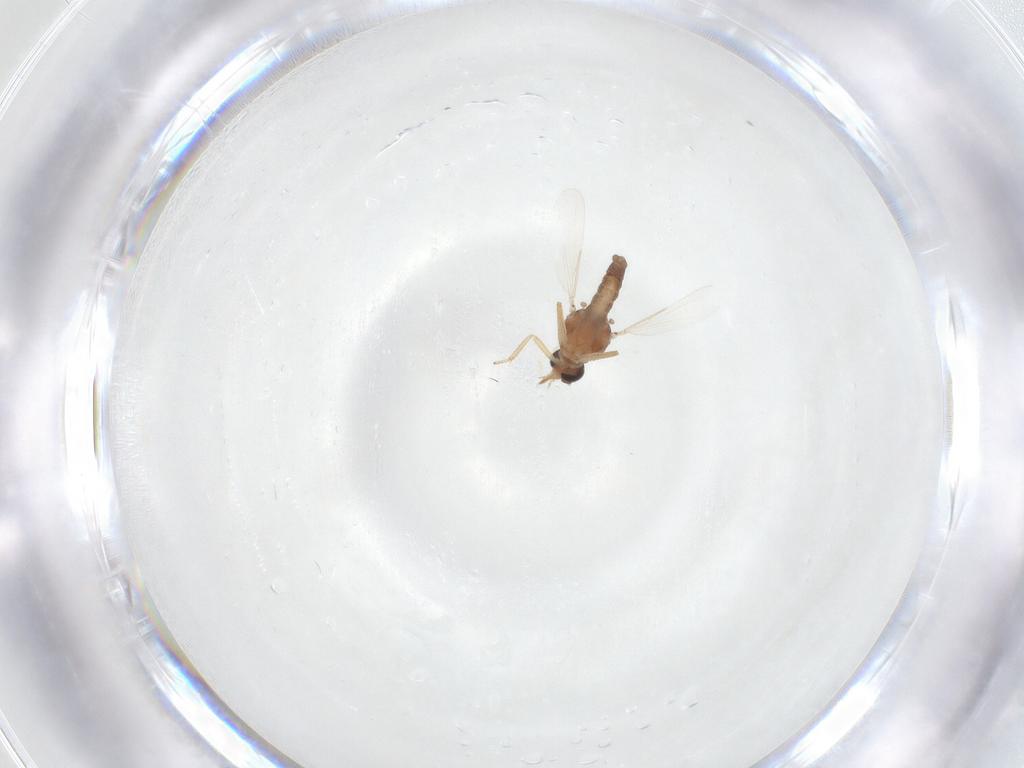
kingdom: Animalia
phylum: Arthropoda
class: Insecta
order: Diptera
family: Ceratopogonidae
